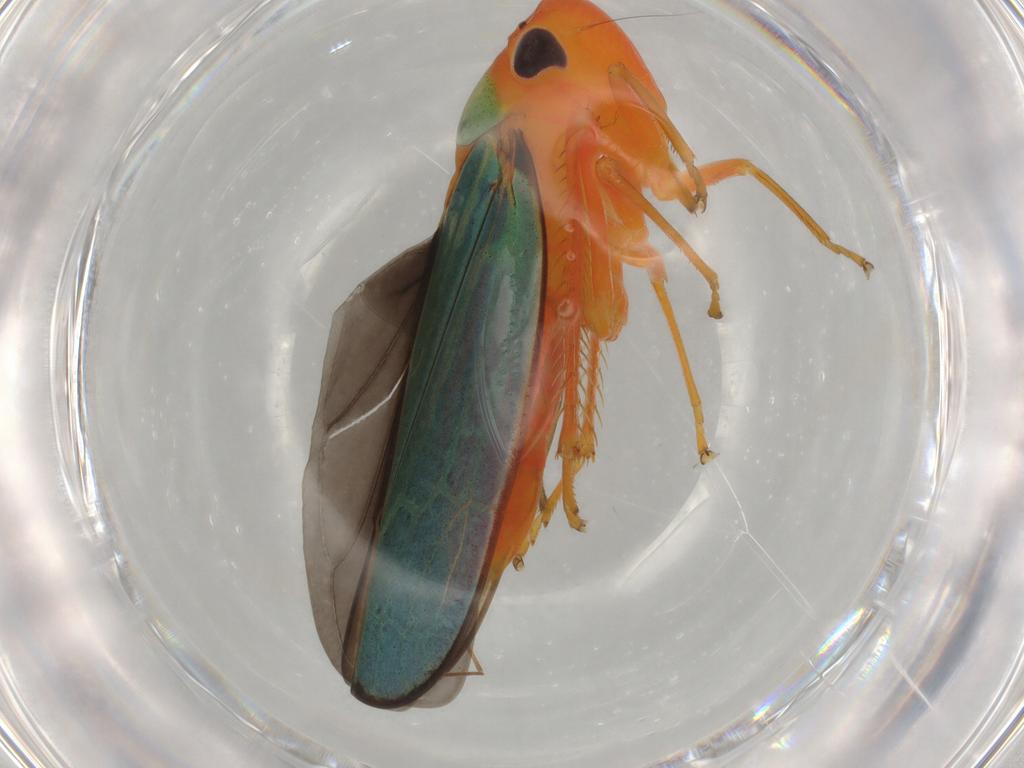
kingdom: Animalia
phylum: Arthropoda
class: Insecta
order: Hemiptera
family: Cicadellidae
